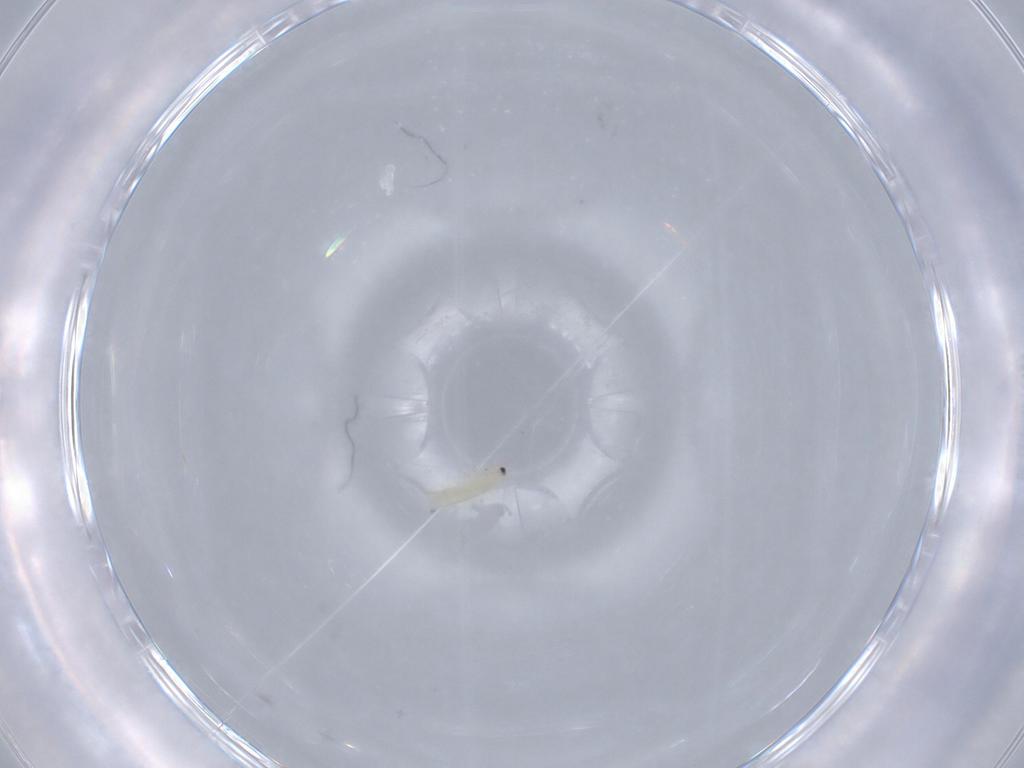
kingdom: Animalia
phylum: Arthropoda
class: Insecta
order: Thysanoptera
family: Thripidae
